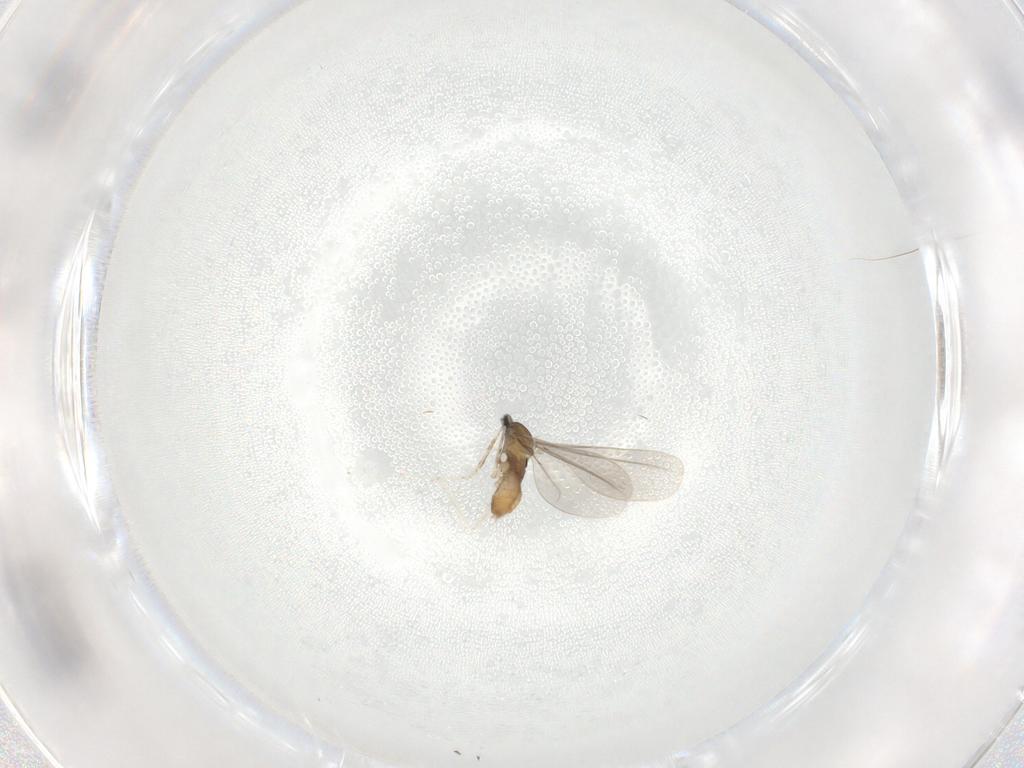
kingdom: Animalia
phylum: Arthropoda
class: Insecta
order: Diptera
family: Cecidomyiidae
